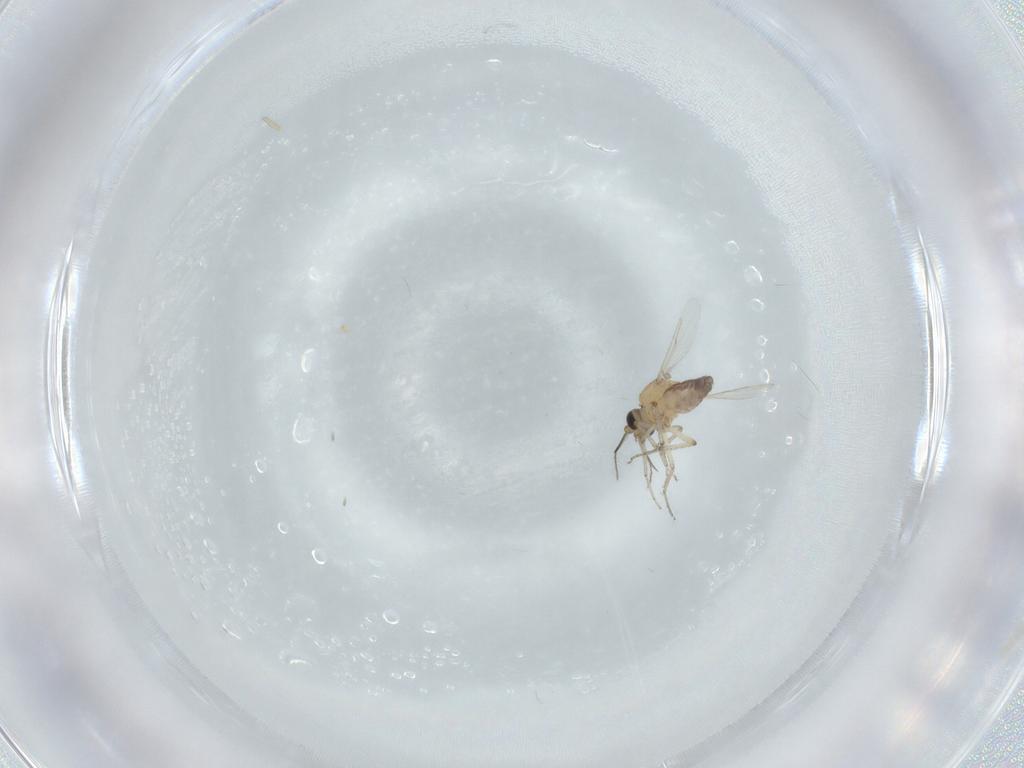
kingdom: Animalia
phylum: Arthropoda
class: Insecta
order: Diptera
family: Ceratopogonidae
